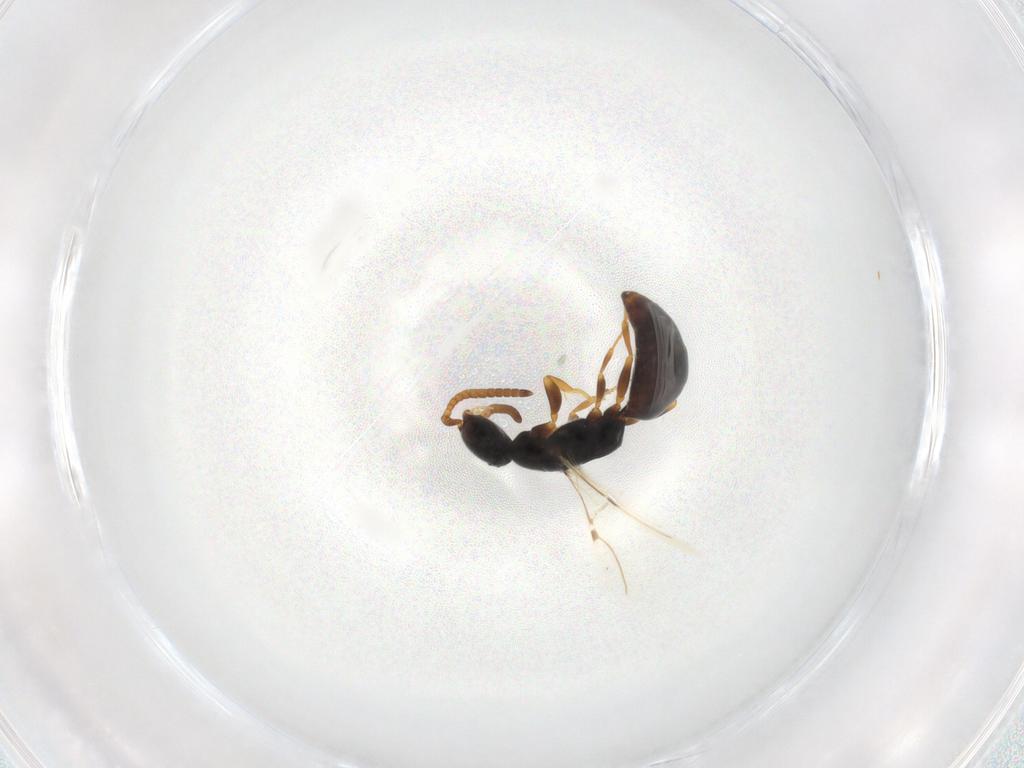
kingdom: Animalia
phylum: Arthropoda
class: Insecta
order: Hymenoptera
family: Bethylidae
